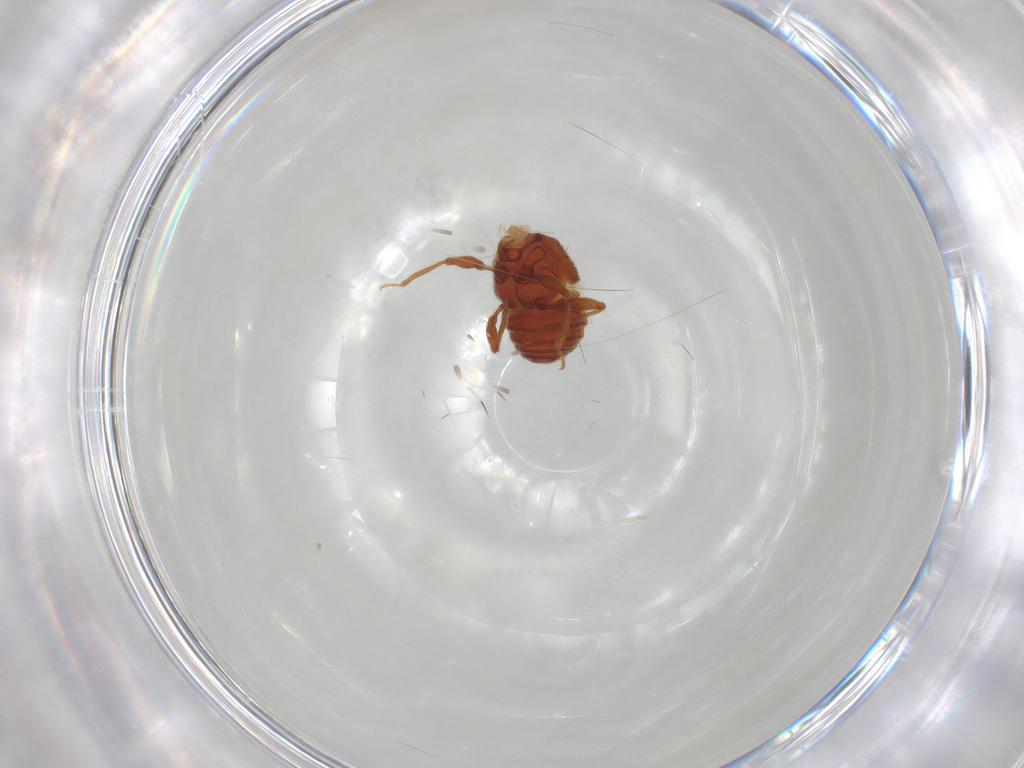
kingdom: Animalia
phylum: Arthropoda
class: Insecta
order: Coleoptera
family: Staphylinidae
